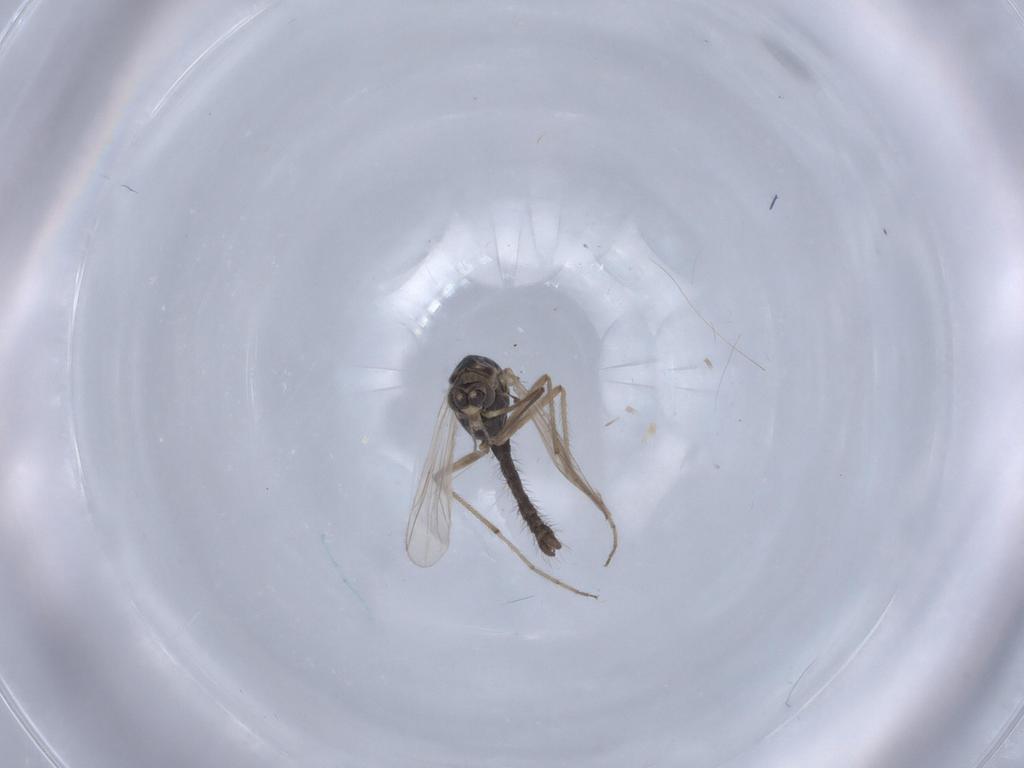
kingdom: Animalia
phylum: Arthropoda
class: Insecta
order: Diptera
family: Chironomidae
